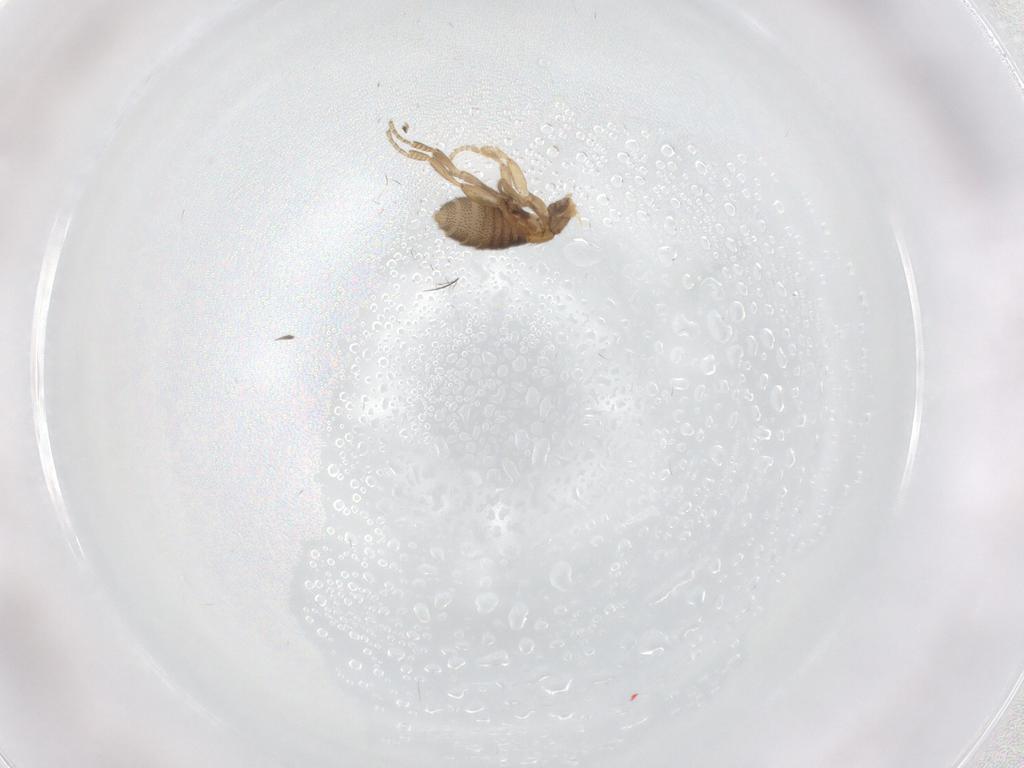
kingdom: Animalia
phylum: Arthropoda
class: Insecta
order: Diptera
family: Phoridae
